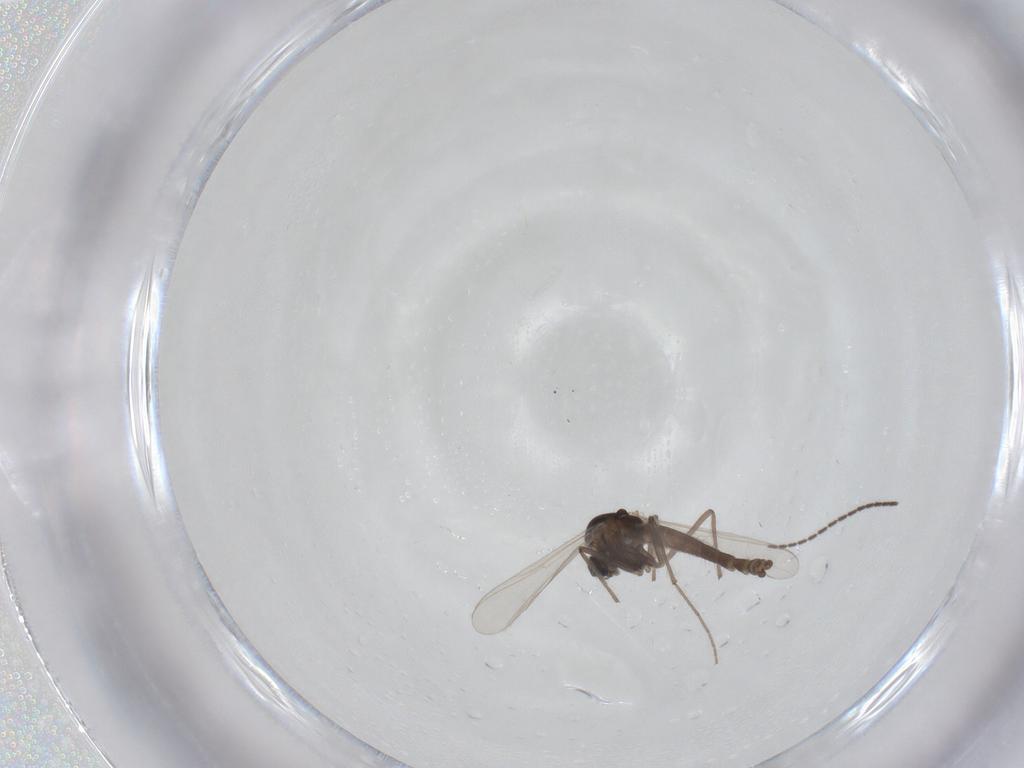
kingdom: Animalia
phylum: Arthropoda
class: Insecta
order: Diptera
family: Chironomidae
